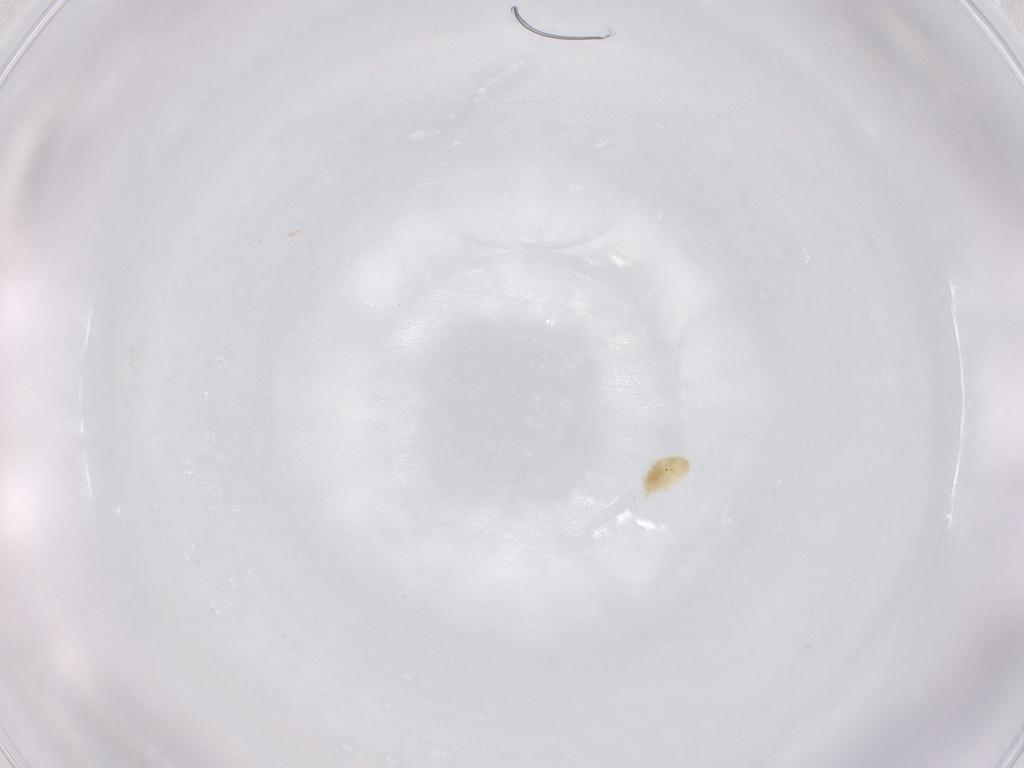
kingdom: Animalia
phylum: Arthropoda
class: Arachnida
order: Trombidiformes
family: Eupodidae
